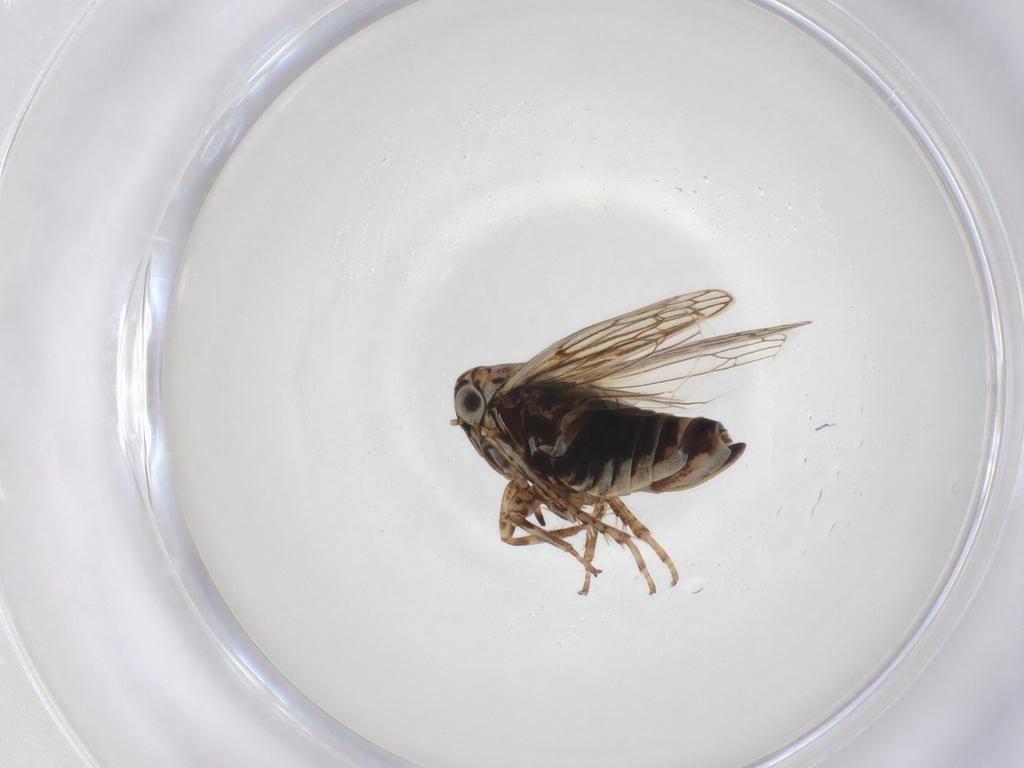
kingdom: Animalia
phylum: Arthropoda
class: Insecta
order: Hemiptera
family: Cicadellidae
